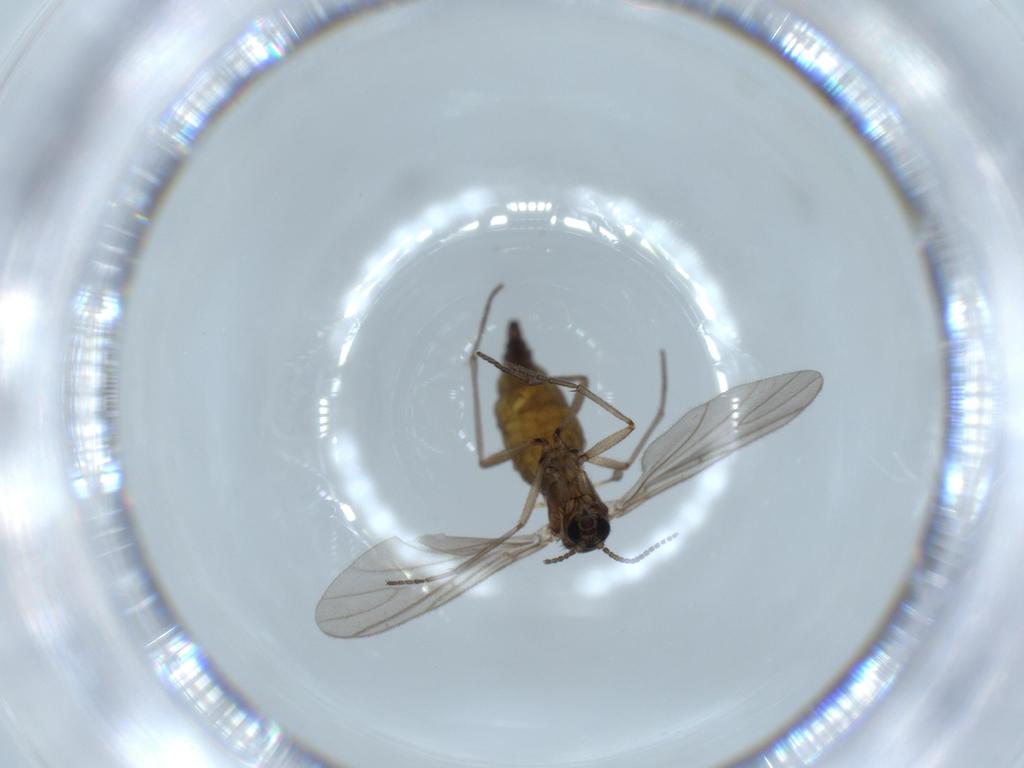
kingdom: Animalia
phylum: Arthropoda
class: Insecta
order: Diptera
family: Sciaridae
